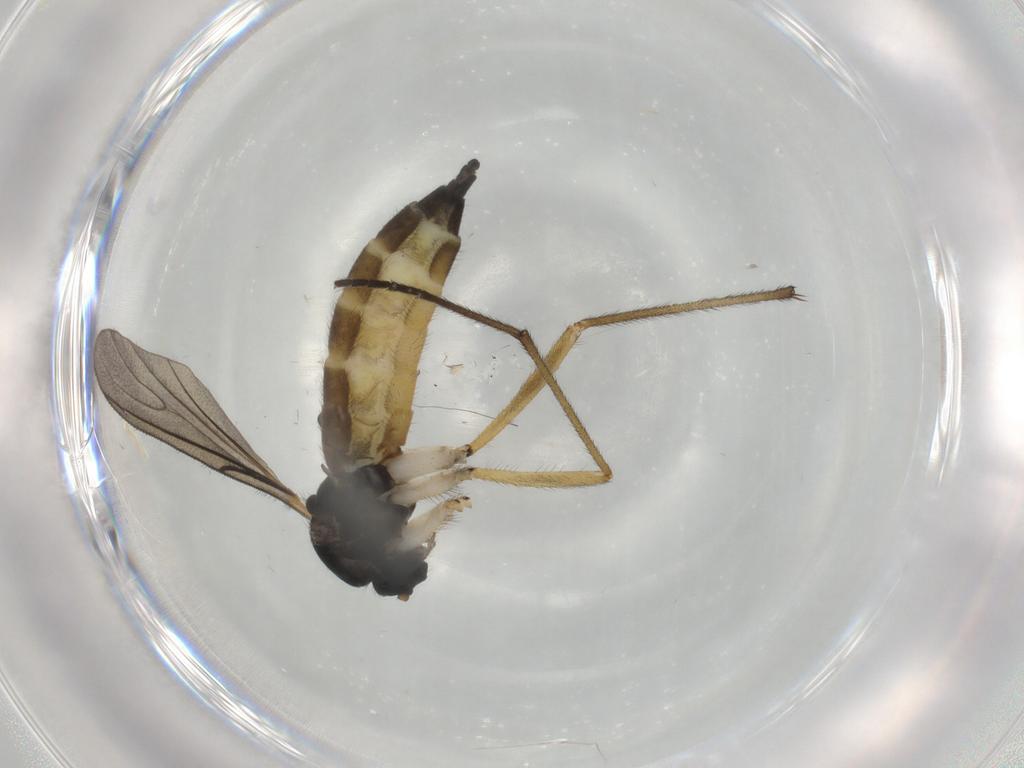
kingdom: Animalia
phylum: Arthropoda
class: Insecta
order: Diptera
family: Sciaridae
